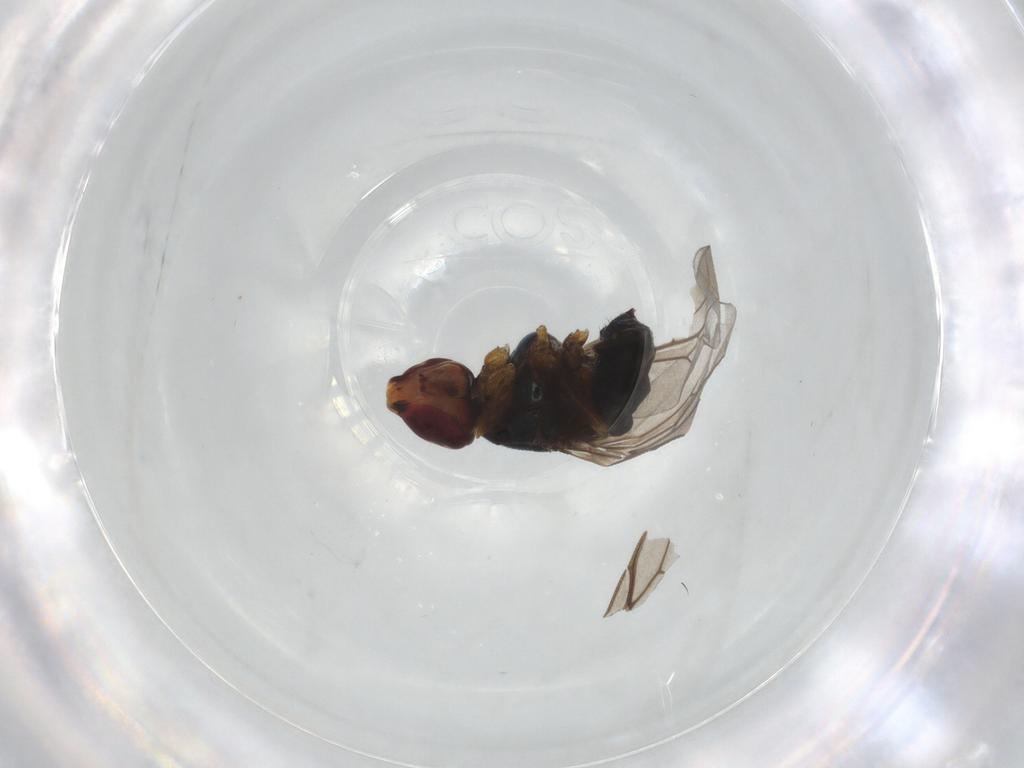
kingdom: Animalia
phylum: Arthropoda
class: Insecta
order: Diptera
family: Chloropidae
